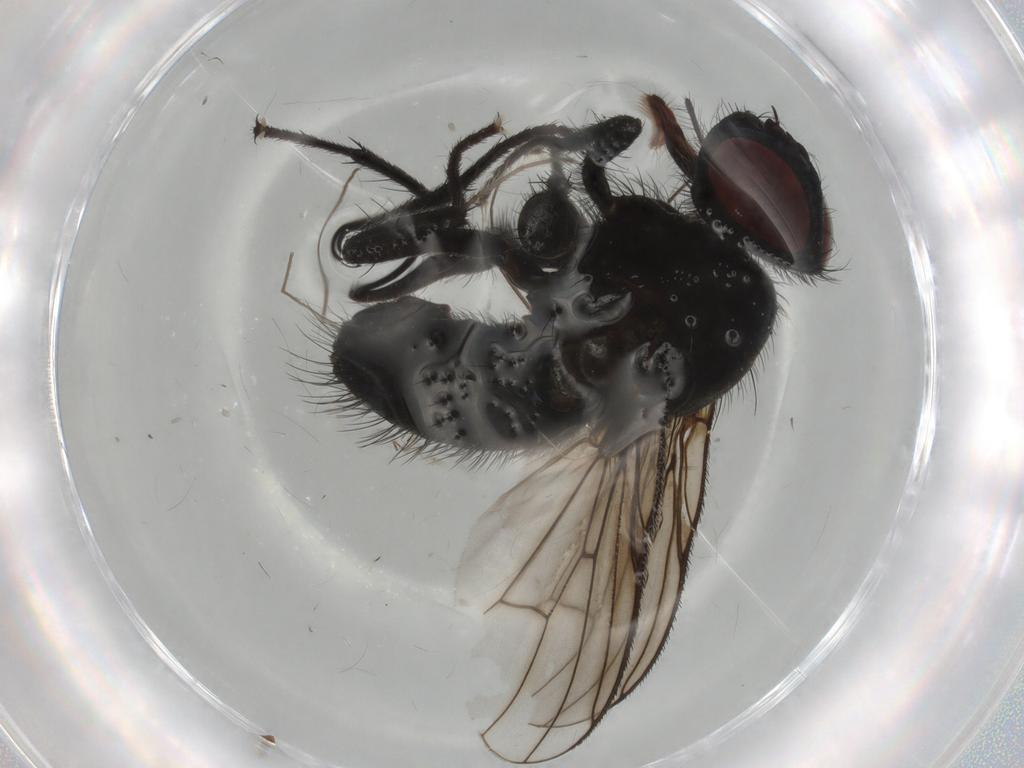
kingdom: Animalia
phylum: Arthropoda
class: Insecta
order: Diptera
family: Muscidae
